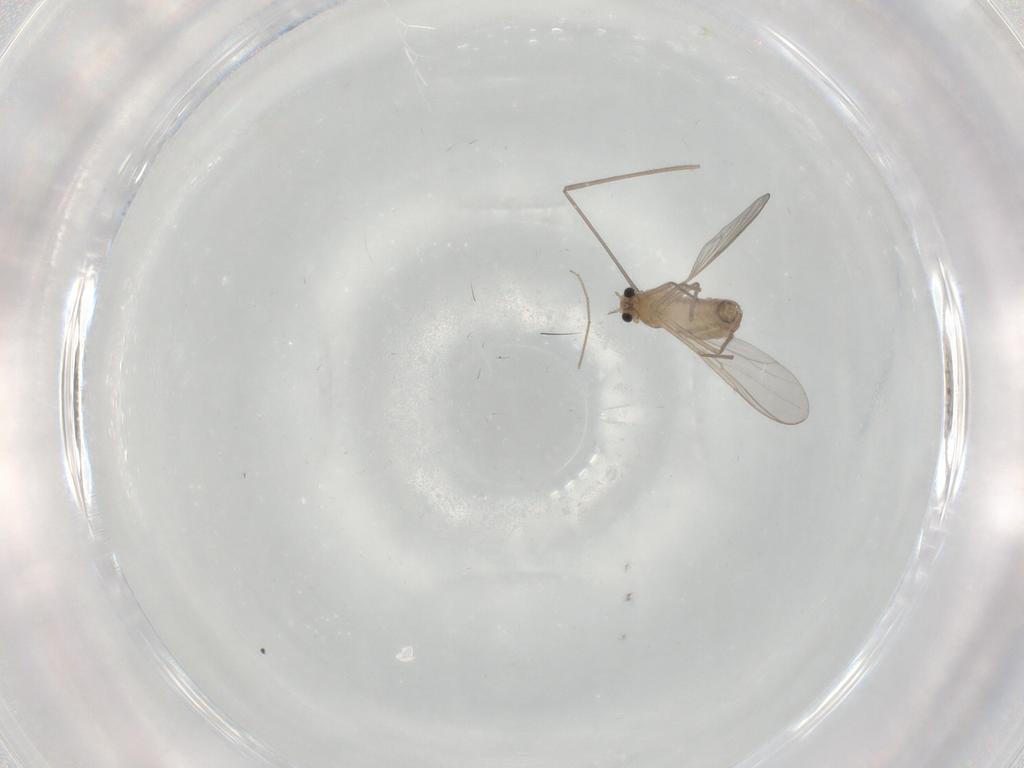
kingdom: Animalia
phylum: Arthropoda
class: Insecta
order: Diptera
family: Chironomidae
